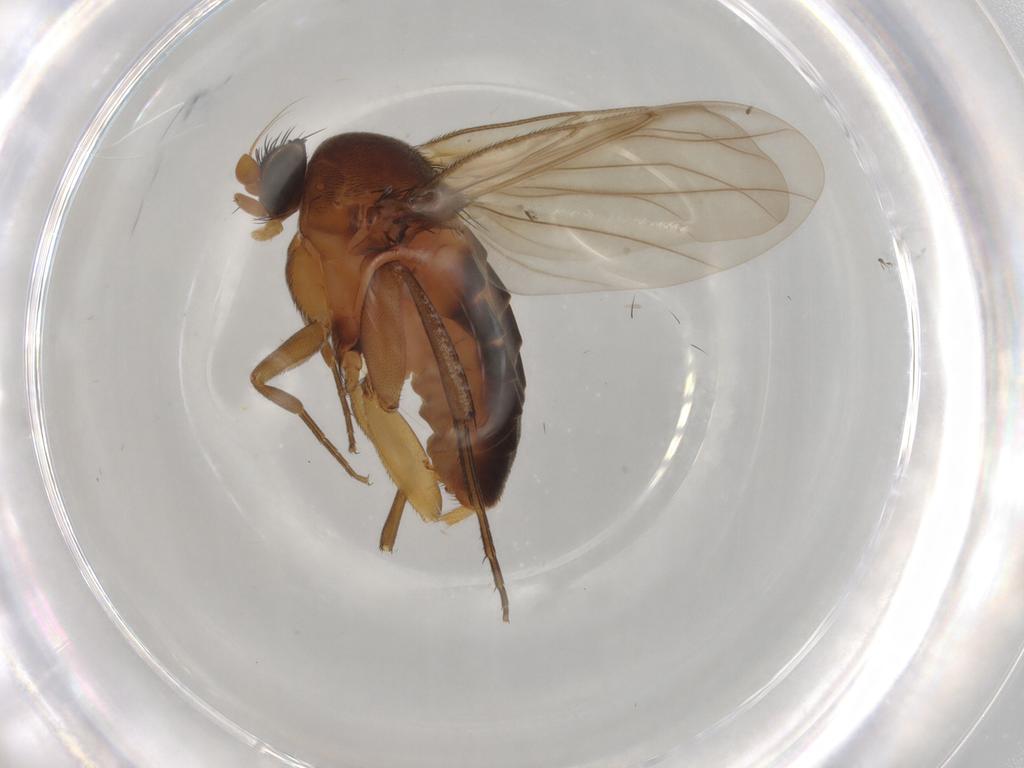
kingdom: Animalia
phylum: Arthropoda
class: Insecta
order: Diptera
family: Phoridae
